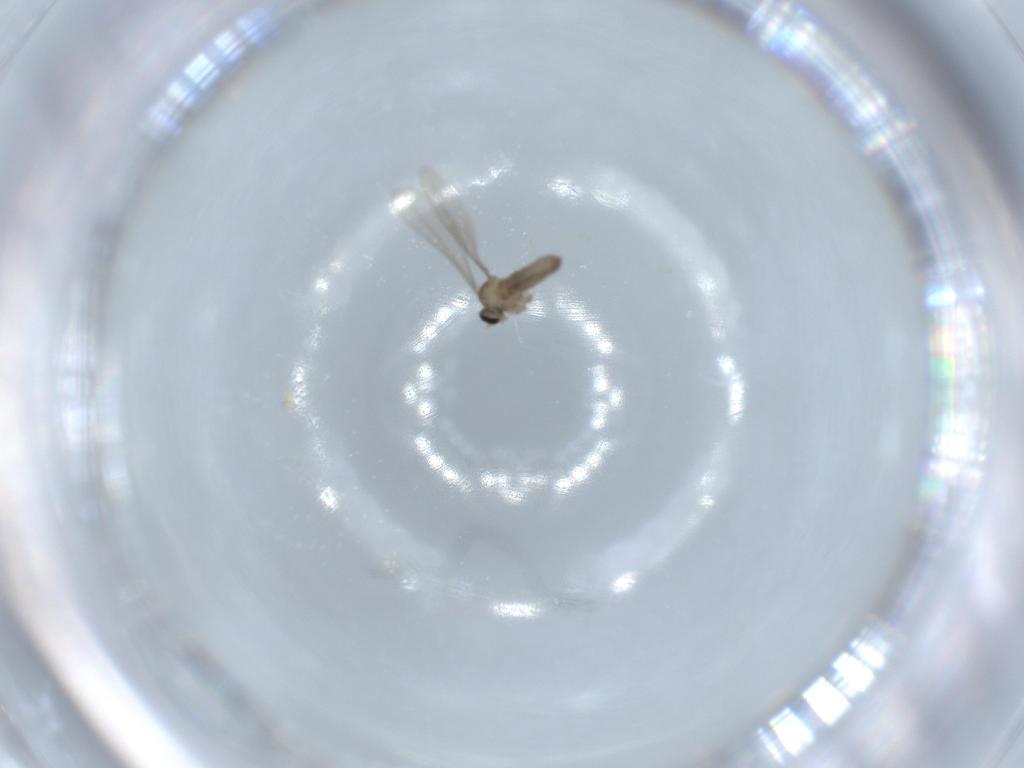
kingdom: Animalia
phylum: Arthropoda
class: Insecta
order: Diptera
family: Cecidomyiidae
